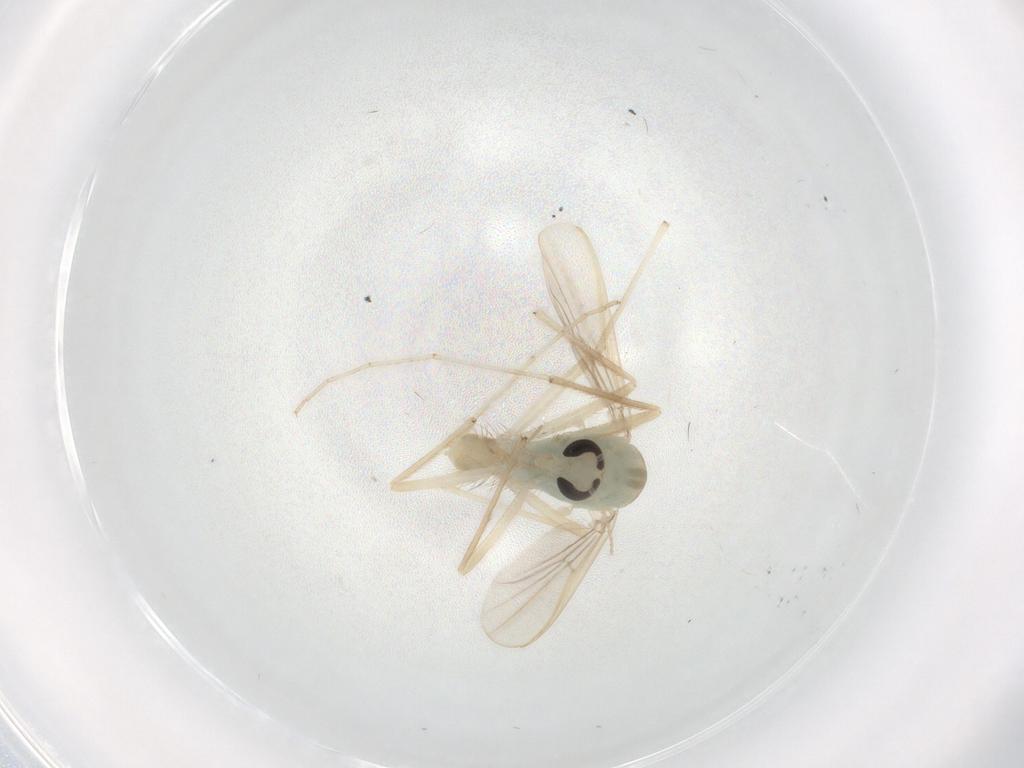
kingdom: Animalia
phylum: Arthropoda
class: Insecta
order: Diptera
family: Chironomidae
